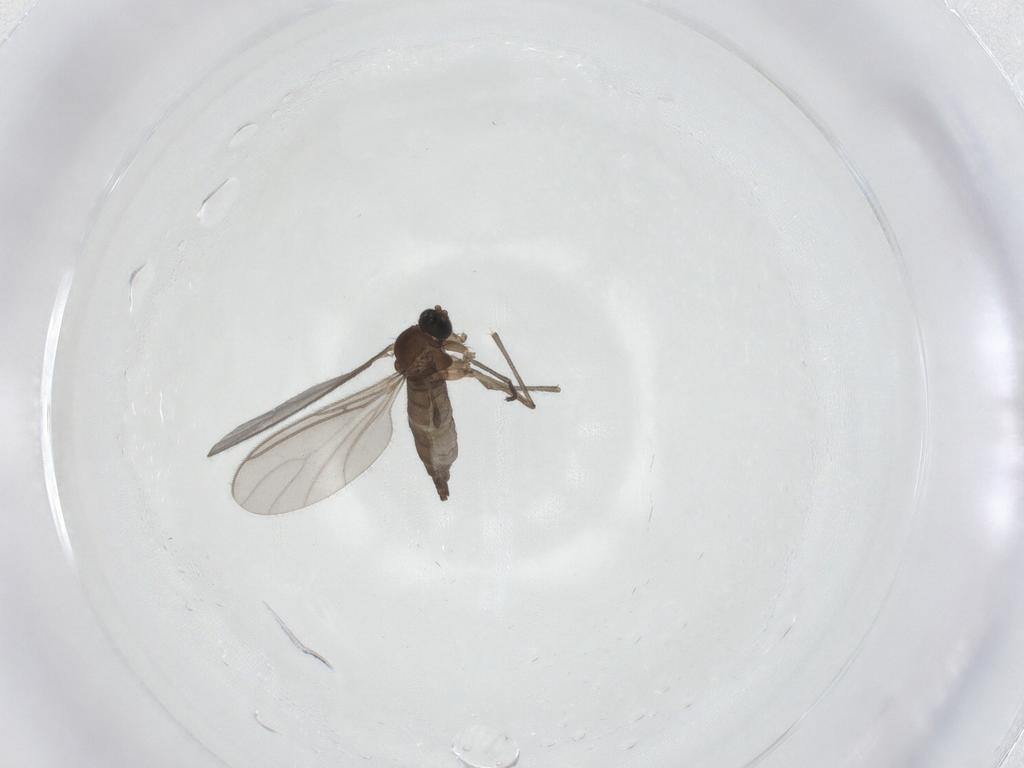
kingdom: Animalia
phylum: Arthropoda
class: Insecta
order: Diptera
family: Sciaridae
